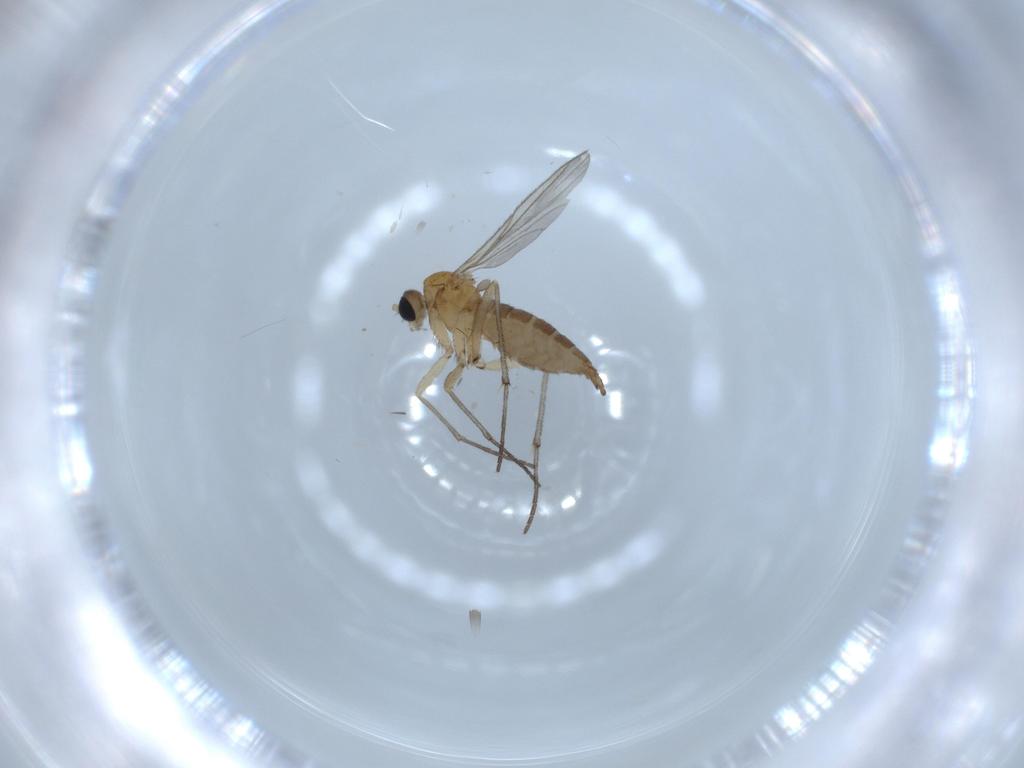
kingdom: Animalia
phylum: Arthropoda
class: Insecta
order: Diptera
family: Sciaridae
